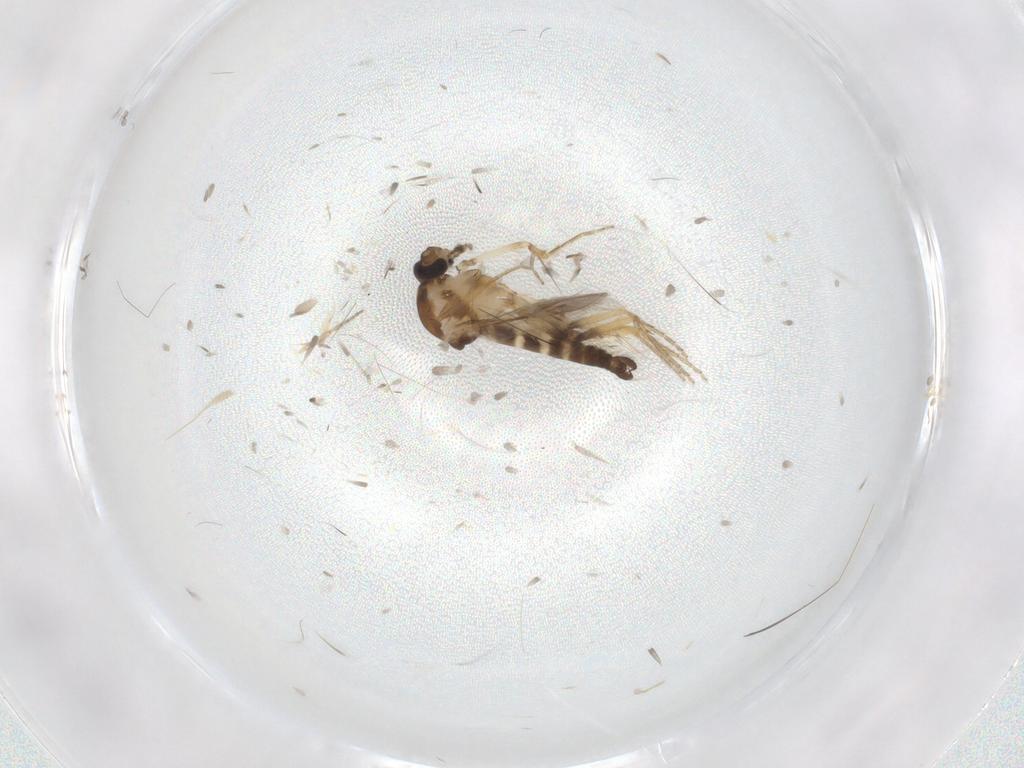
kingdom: Animalia
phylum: Arthropoda
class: Insecta
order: Diptera
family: Ceratopogonidae
